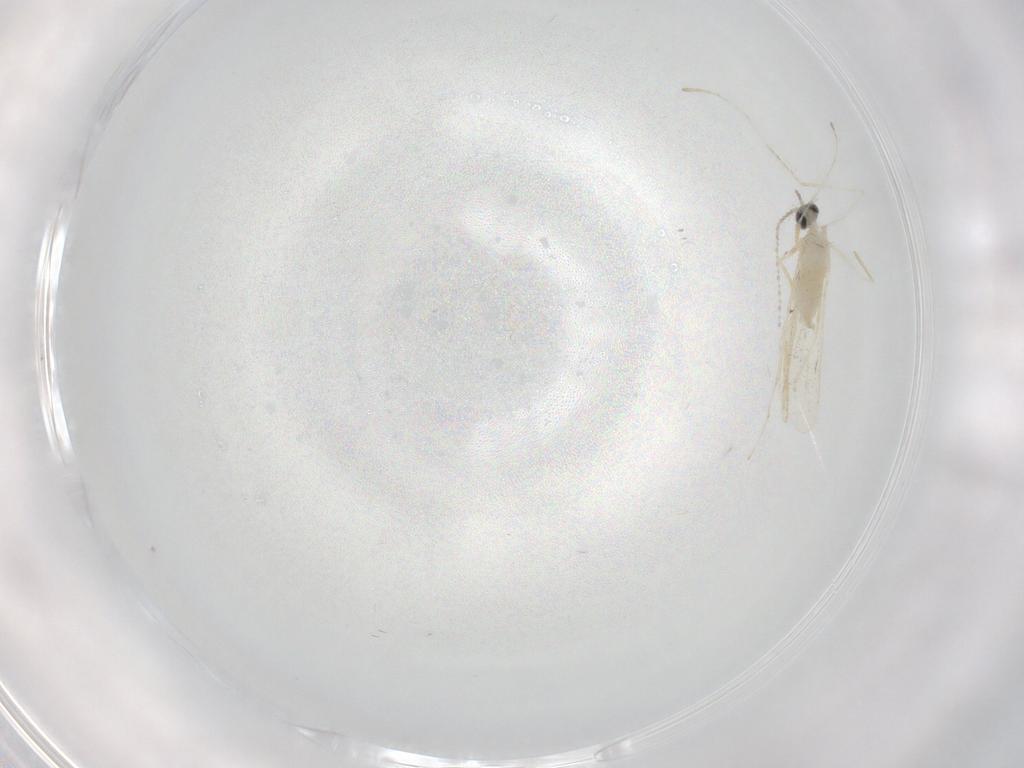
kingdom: Animalia
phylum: Arthropoda
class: Insecta
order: Diptera
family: Cecidomyiidae
